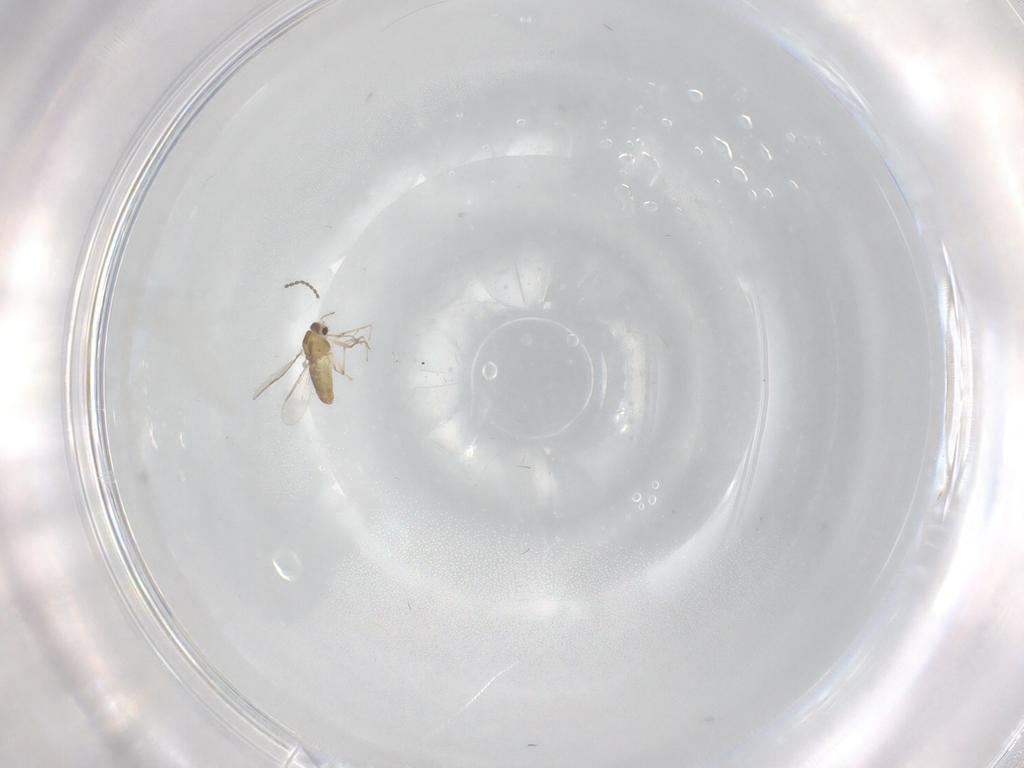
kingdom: Animalia
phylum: Arthropoda
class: Insecta
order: Diptera
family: Chironomidae
